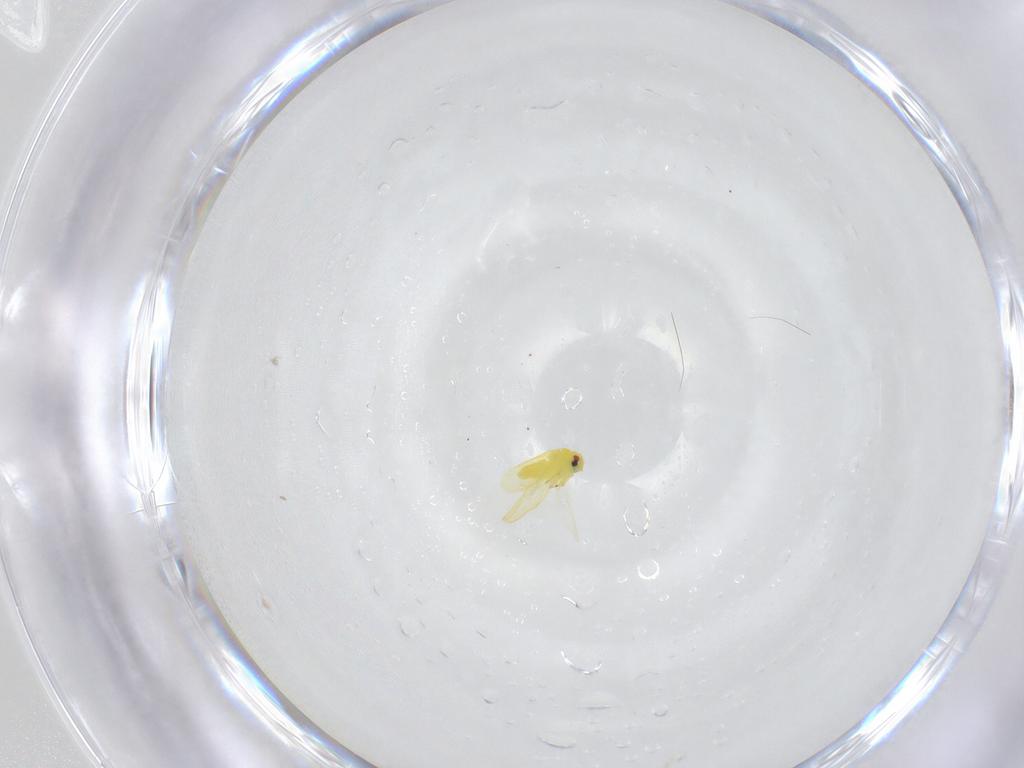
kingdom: Animalia
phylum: Arthropoda
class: Insecta
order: Hemiptera
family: Aleyrodidae
